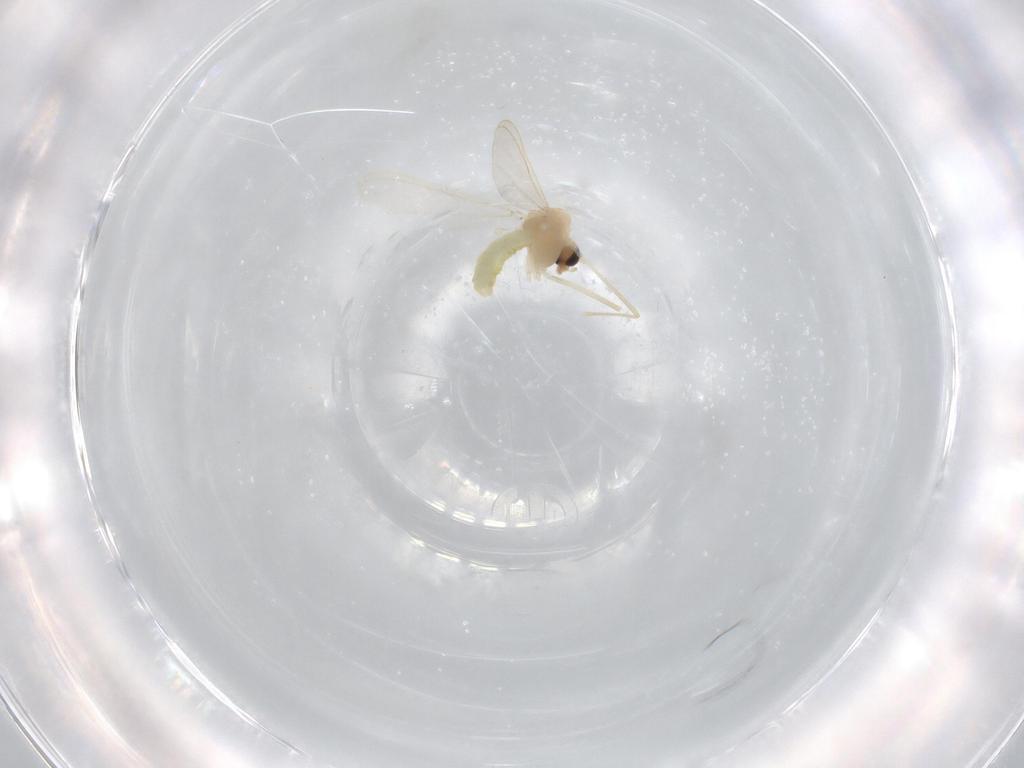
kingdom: Animalia
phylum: Arthropoda
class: Insecta
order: Diptera
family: Chironomidae
